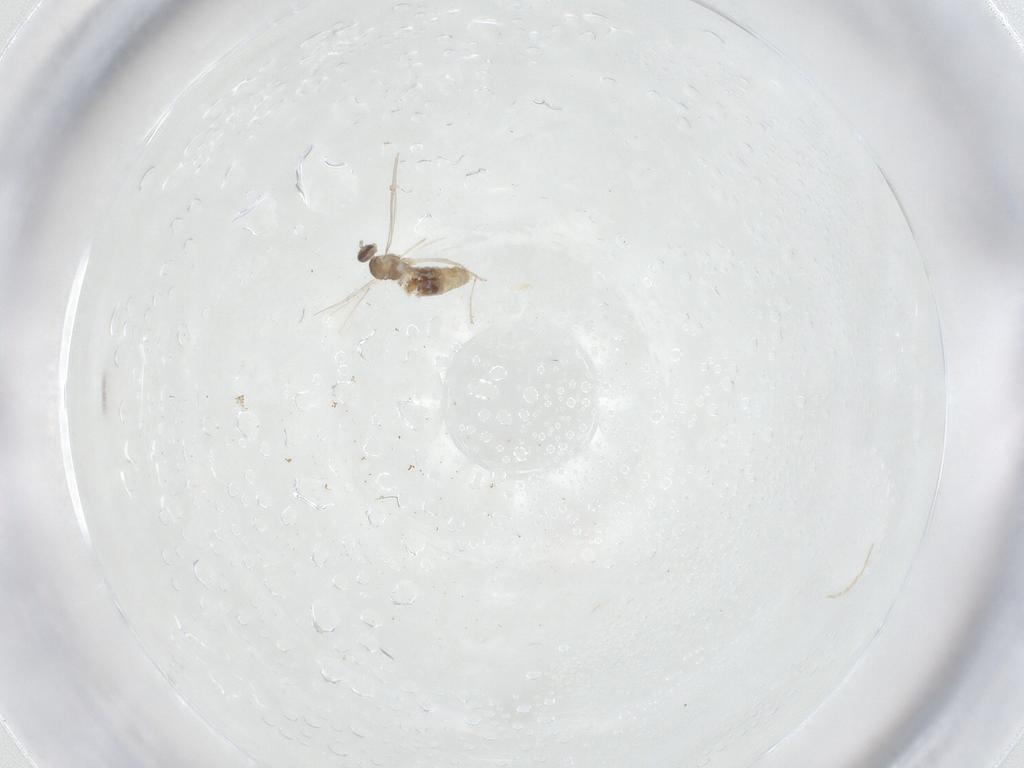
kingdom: Animalia
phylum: Arthropoda
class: Insecta
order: Diptera
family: Cecidomyiidae
